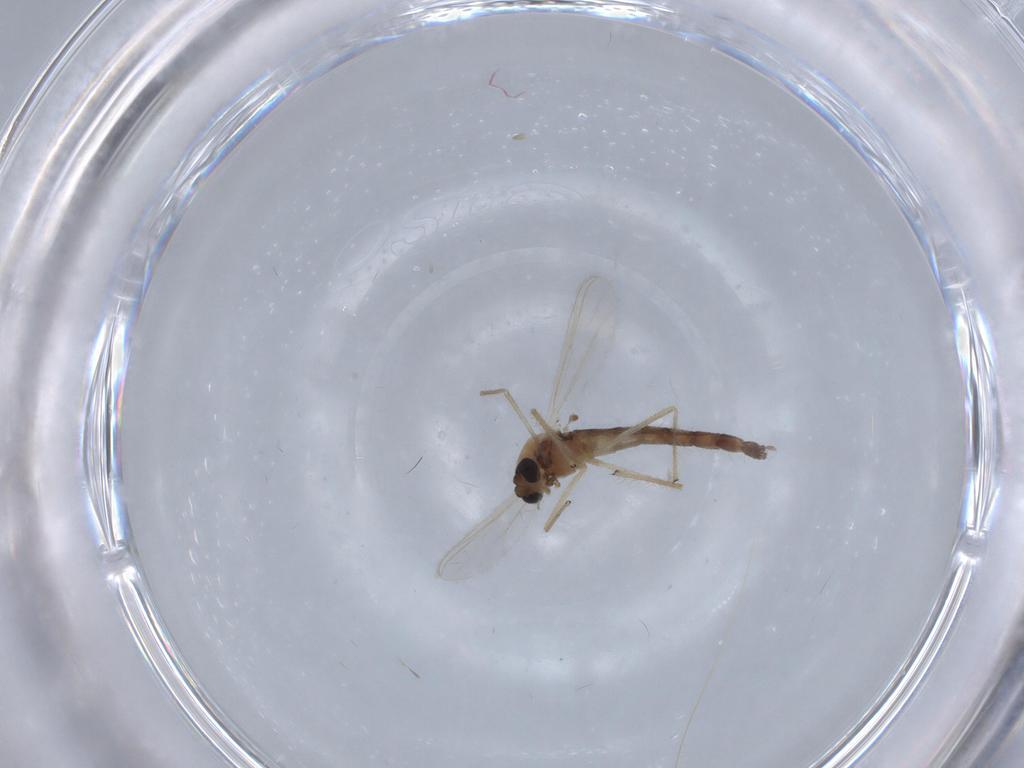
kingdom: Animalia
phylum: Arthropoda
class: Insecta
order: Diptera
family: Chironomidae
